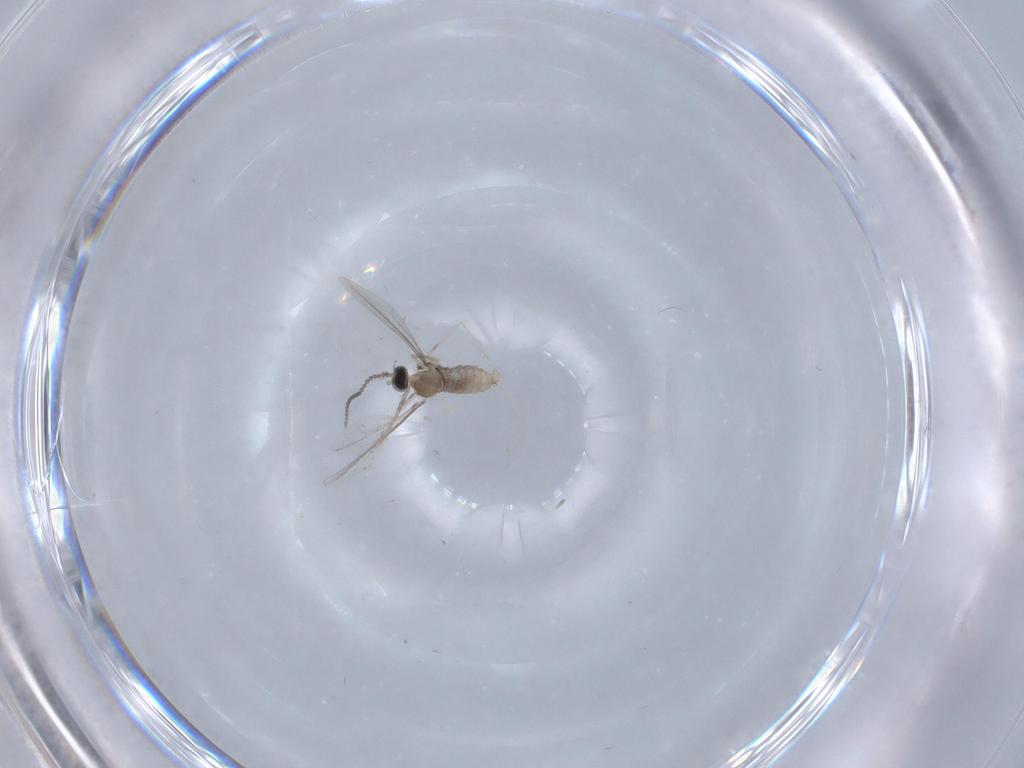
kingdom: Animalia
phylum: Arthropoda
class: Insecta
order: Diptera
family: Cecidomyiidae
